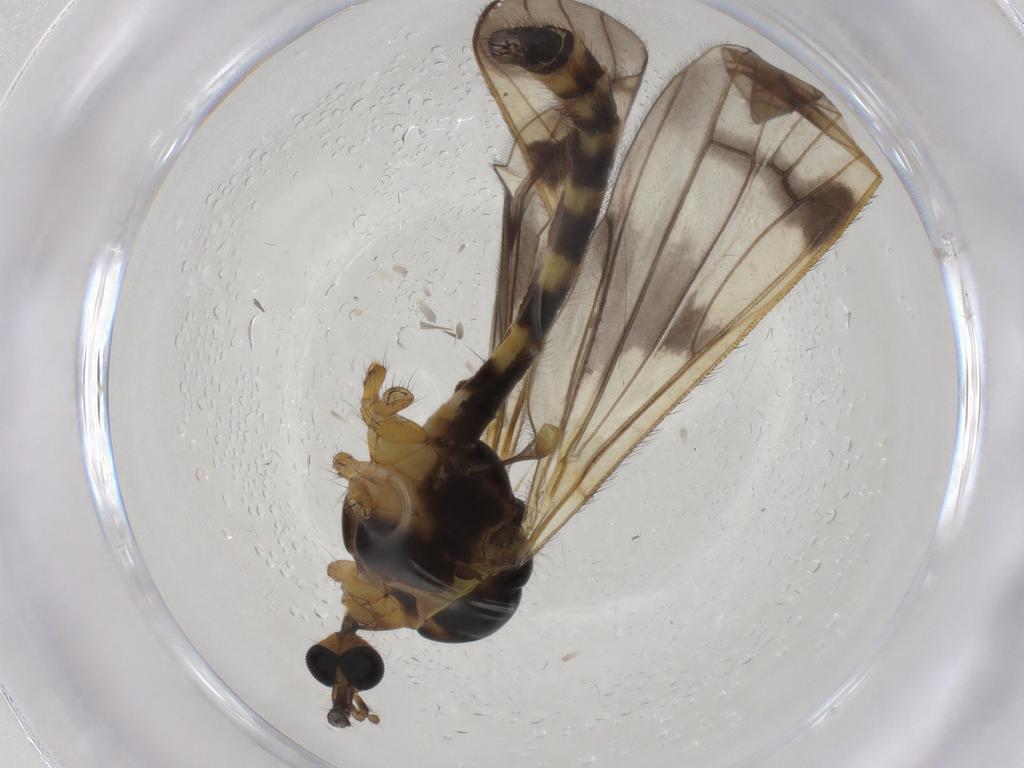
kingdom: Animalia
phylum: Arthropoda
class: Insecta
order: Diptera
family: Limoniidae
